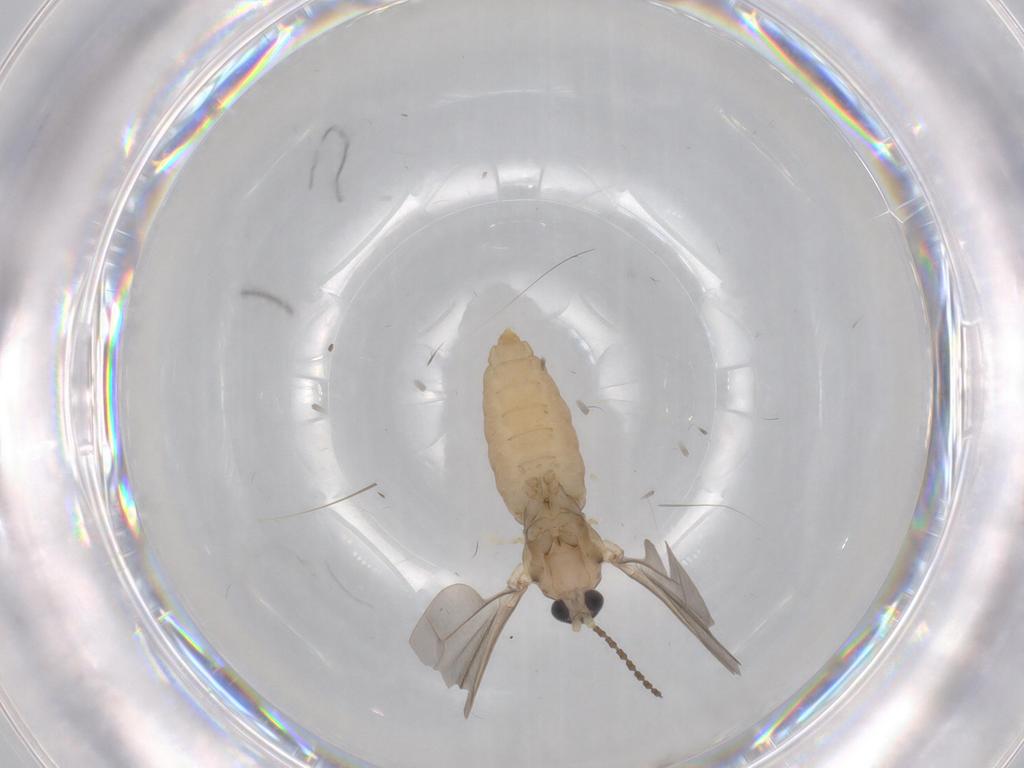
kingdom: Animalia
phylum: Arthropoda
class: Insecta
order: Diptera
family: Cecidomyiidae
